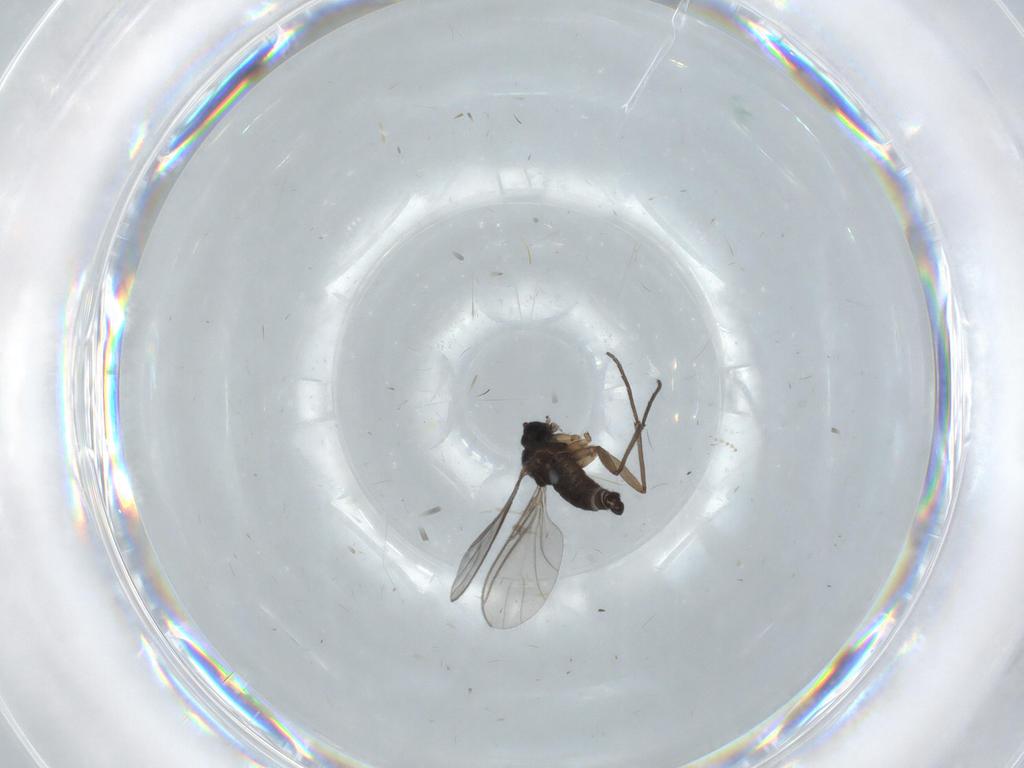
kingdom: Animalia
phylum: Arthropoda
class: Insecta
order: Diptera
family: Sciaridae
